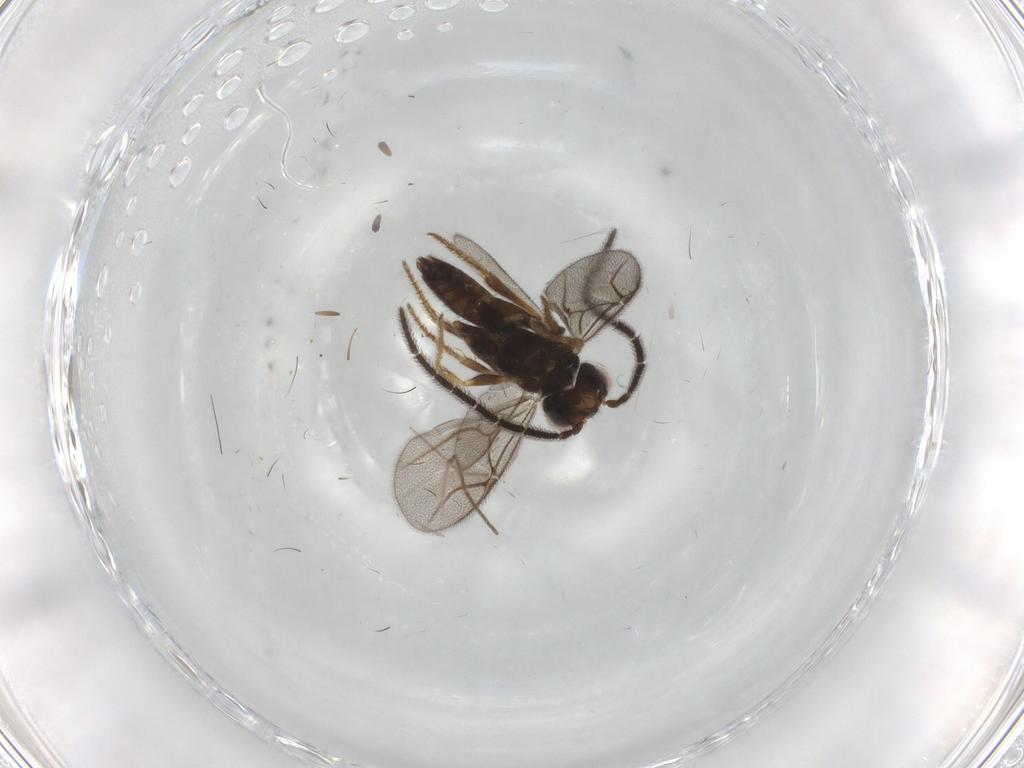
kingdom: Animalia
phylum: Arthropoda
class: Insecta
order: Hymenoptera
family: Dryinidae
